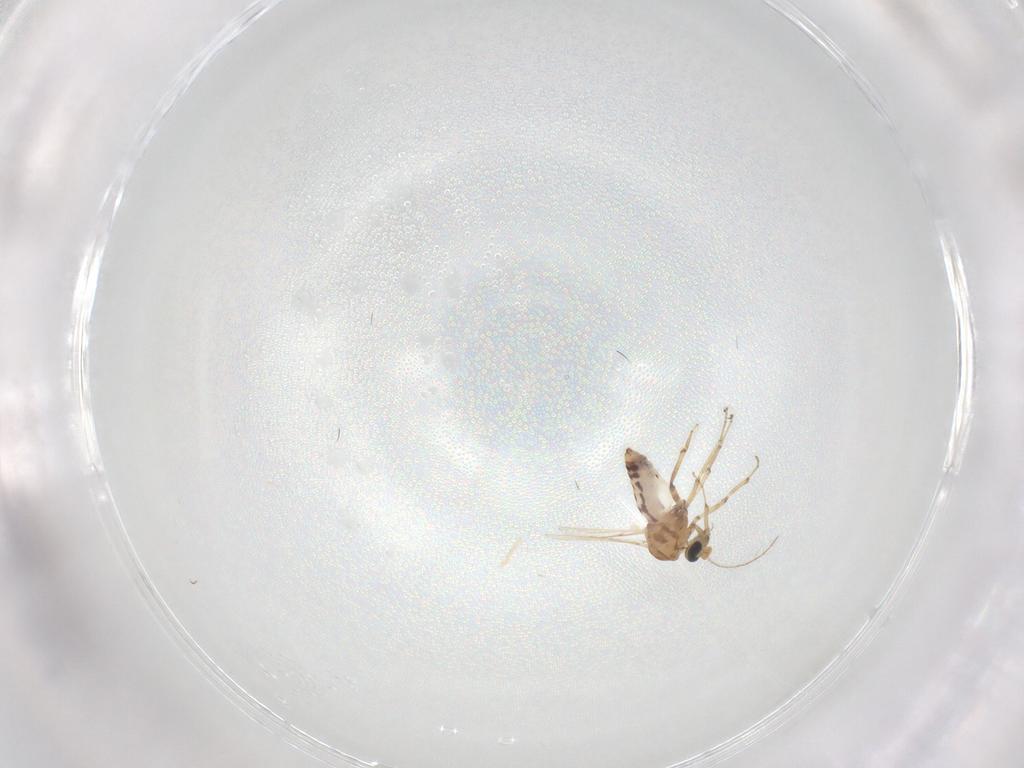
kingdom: Animalia
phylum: Arthropoda
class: Insecta
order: Diptera
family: Ceratopogonidae
